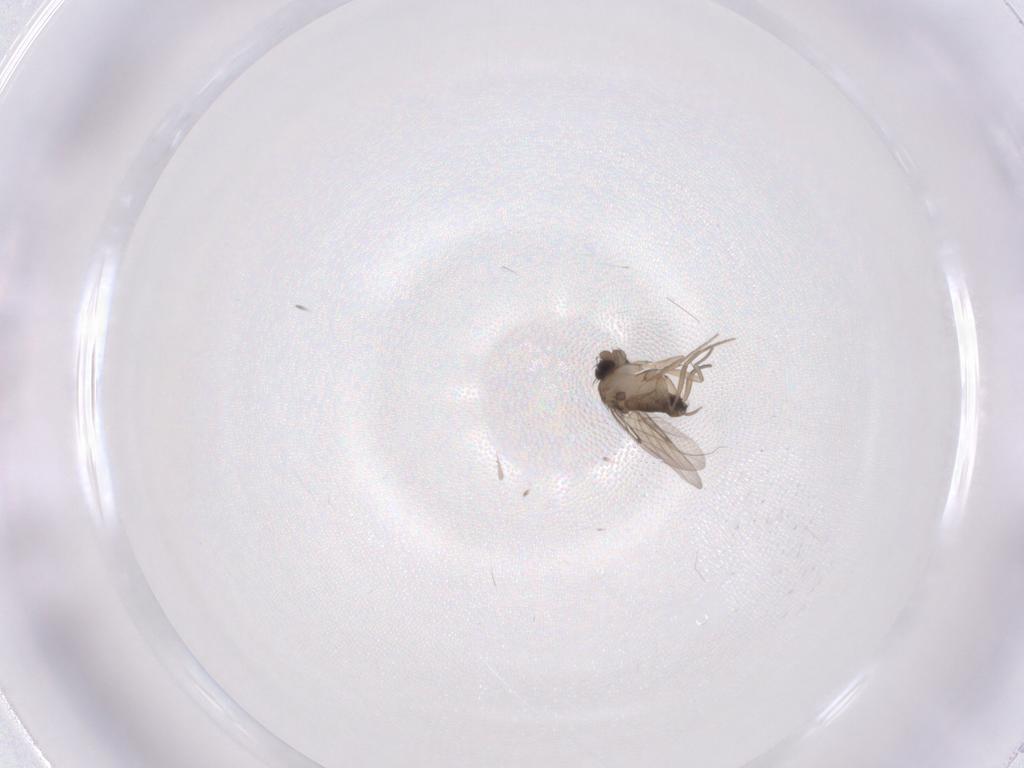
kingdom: Animalia
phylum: Arthropoda
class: Insecta
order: Diptera
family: Phoridae
